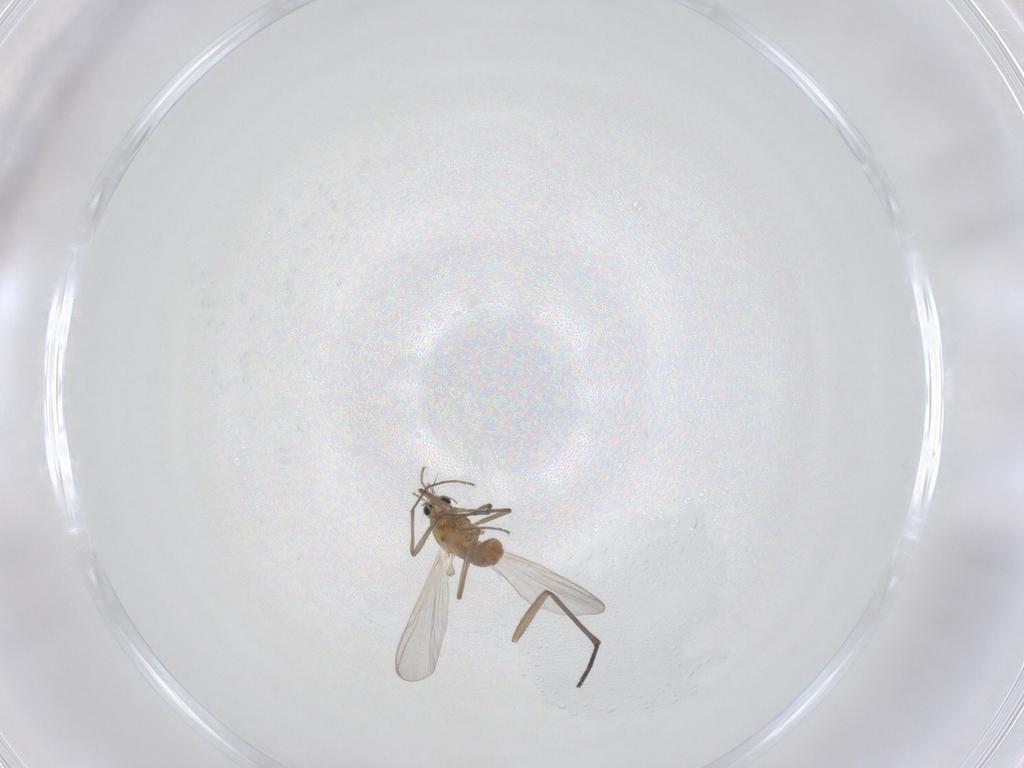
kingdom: Animalia
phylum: Arthropoda
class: Insecta
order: Diptera
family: Chironomidae
